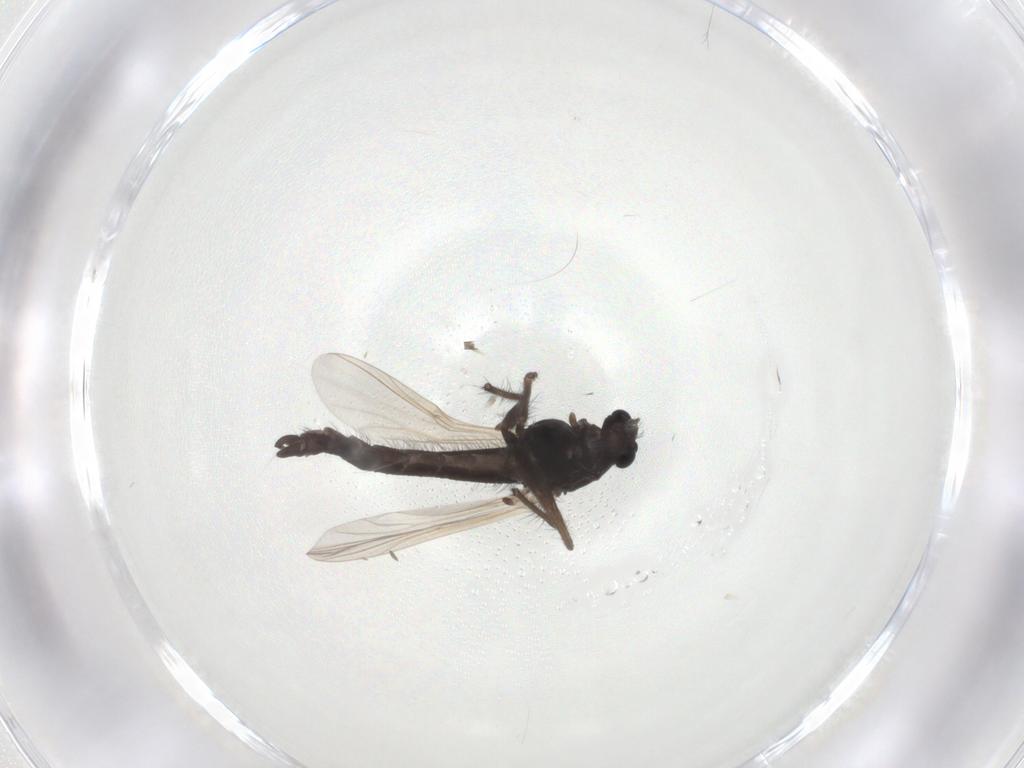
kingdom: Animalia
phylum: Arthropoda
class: Insecta
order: Diptera
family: Chironomidae
